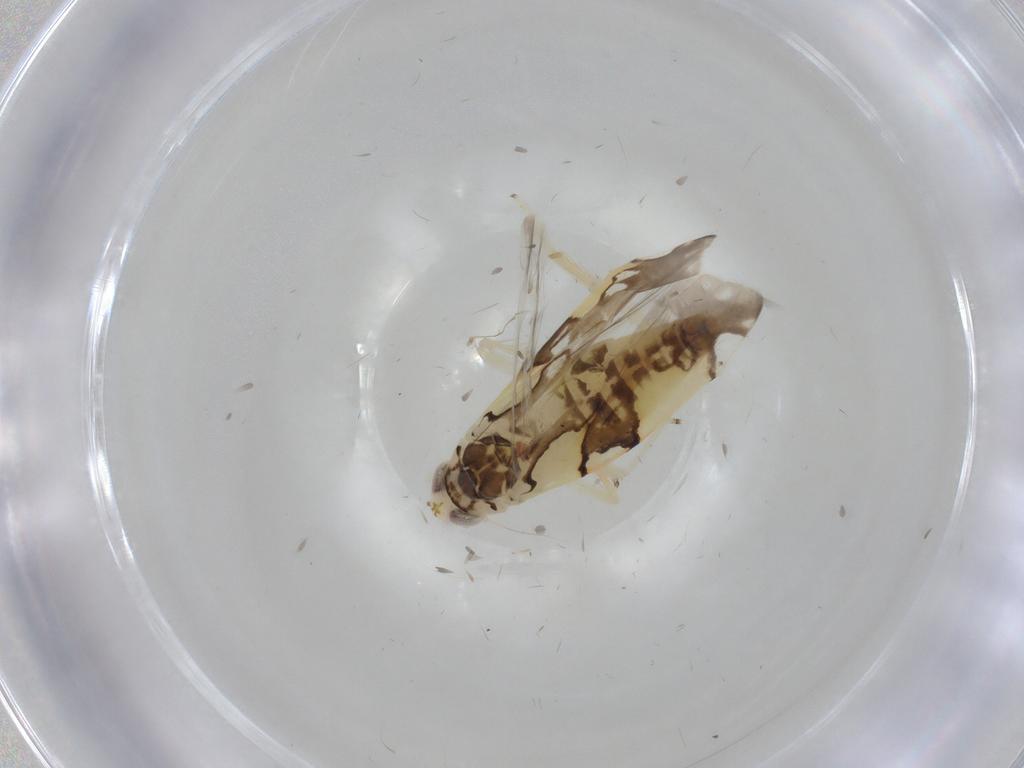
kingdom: Animalia
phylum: Arthropoda
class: Insecta
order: Hemiptera
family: Cicadellidae
